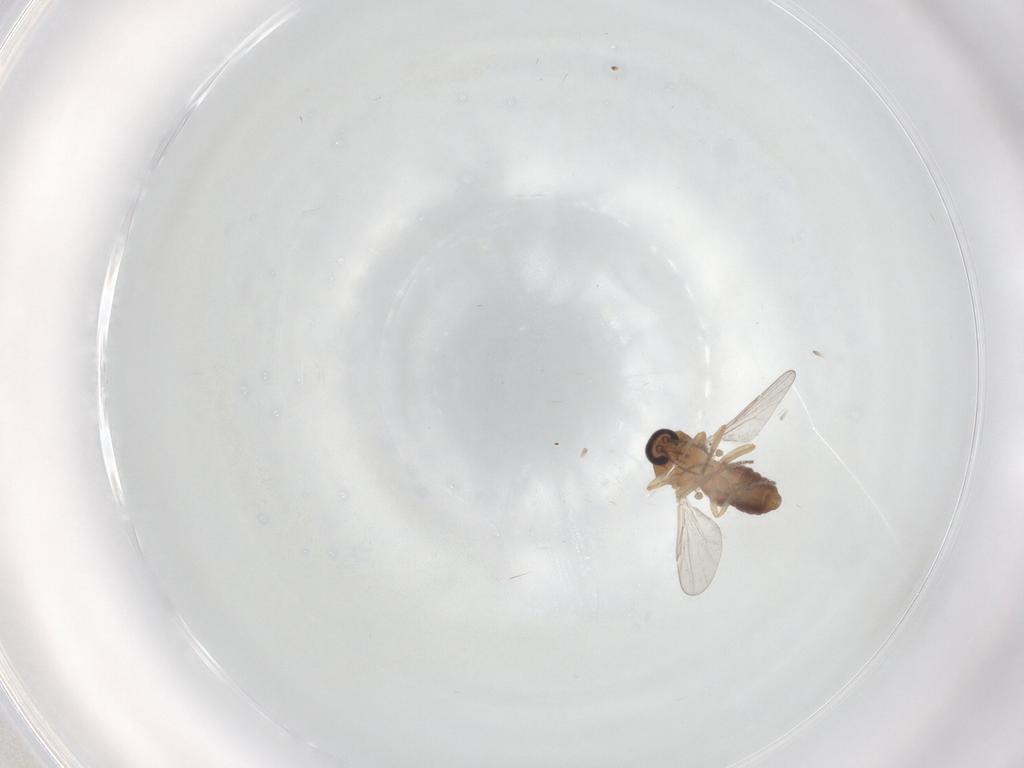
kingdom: Animalia
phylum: Arthropoda
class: Insecta
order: Diptera
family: Ceratopogonidae
